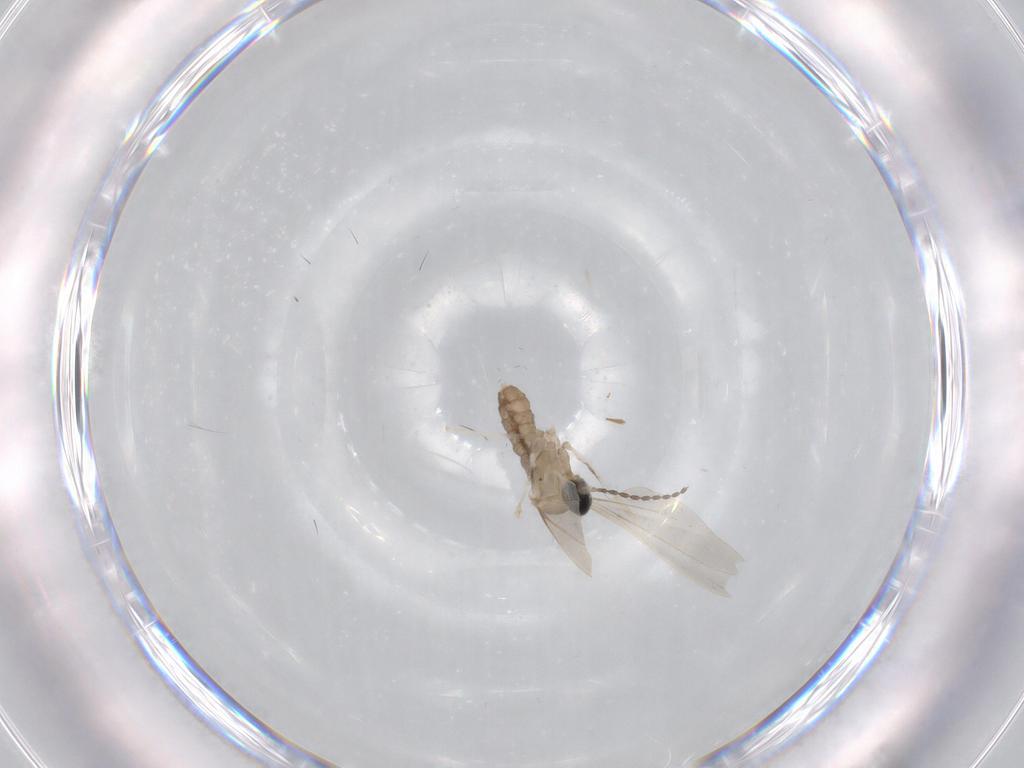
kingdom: Animalia
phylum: Arthropoda
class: Insecta
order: Diptera
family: Cecidomyiidae
